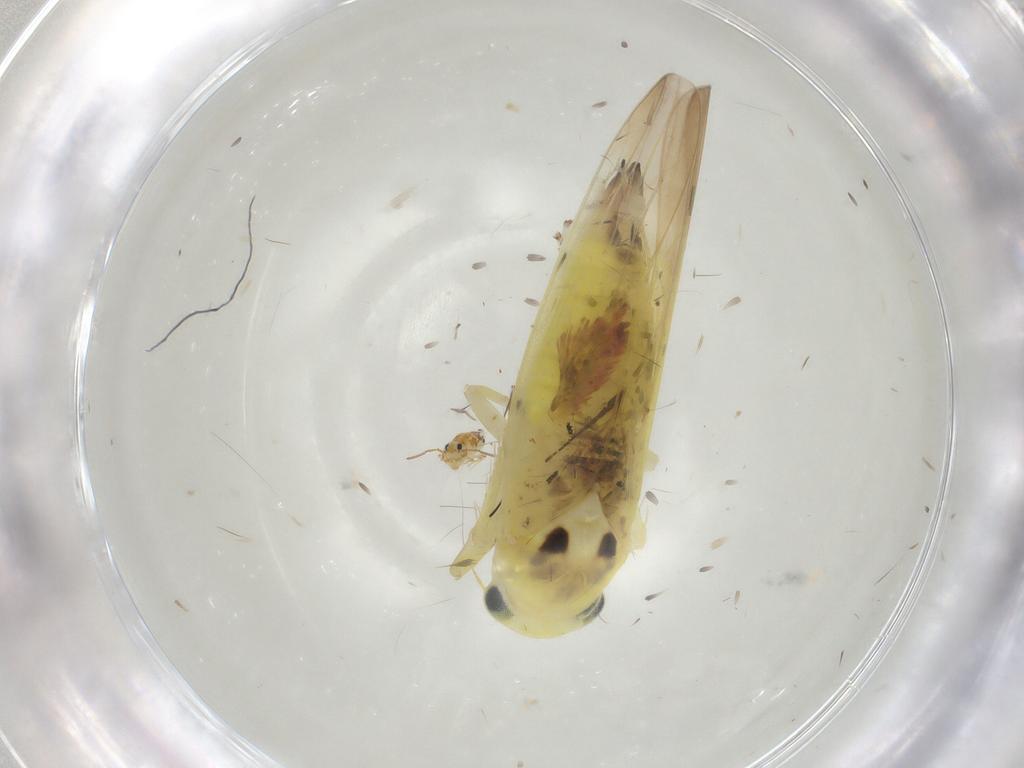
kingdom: Animalia
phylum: Arthropoda
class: Insecta
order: Hemiptera
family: Cicadellidae
